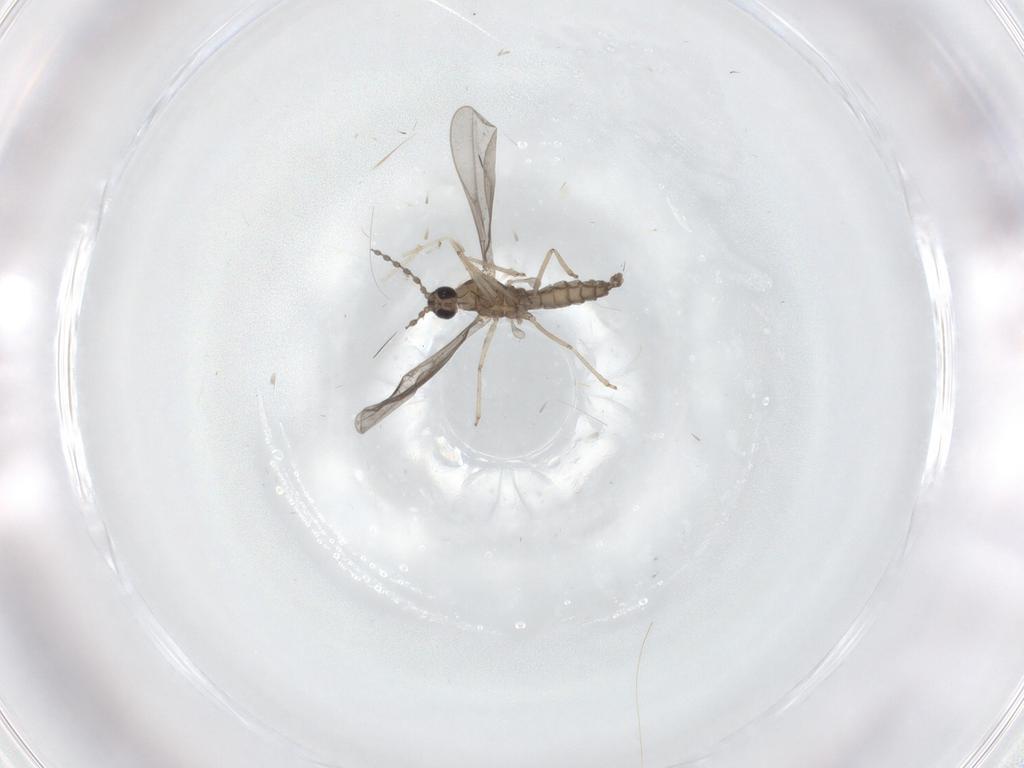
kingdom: Animalia
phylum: Arthropoda
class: Insecta
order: Diptera
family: Cecidomyiidae
